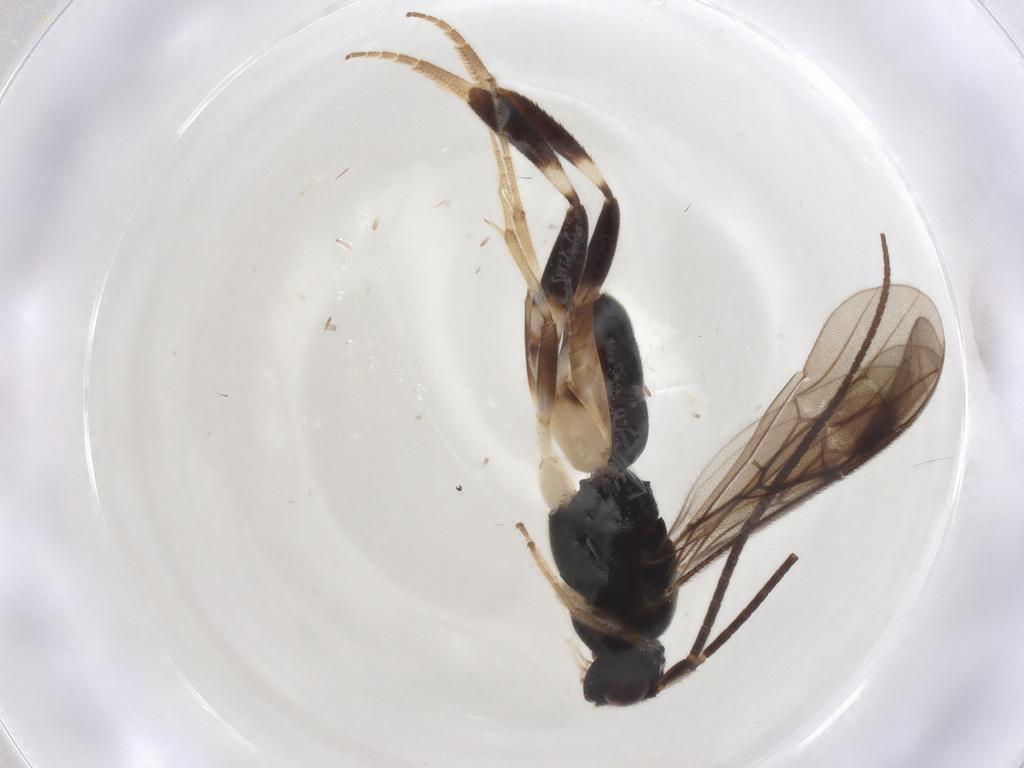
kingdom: Animalia
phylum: Arthropoda
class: Insecta
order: Hymenoptera
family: Braconidae
